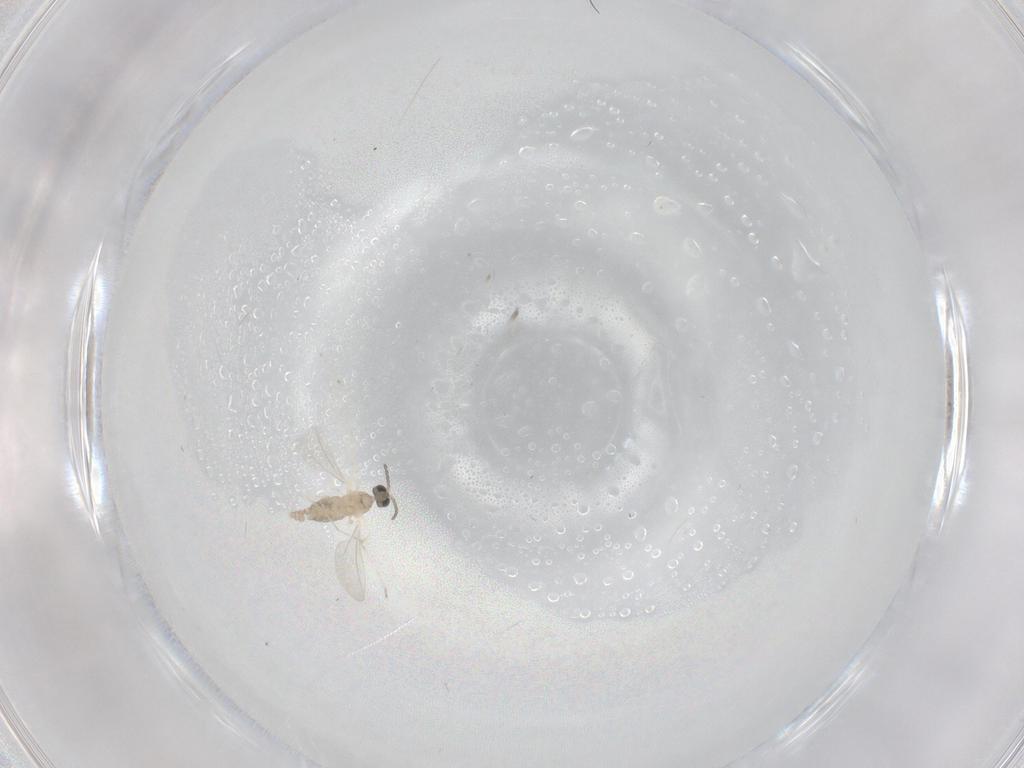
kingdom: Animalia
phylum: Arthropoda
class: Insecta
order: Diptera
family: Cecidomyiidae
